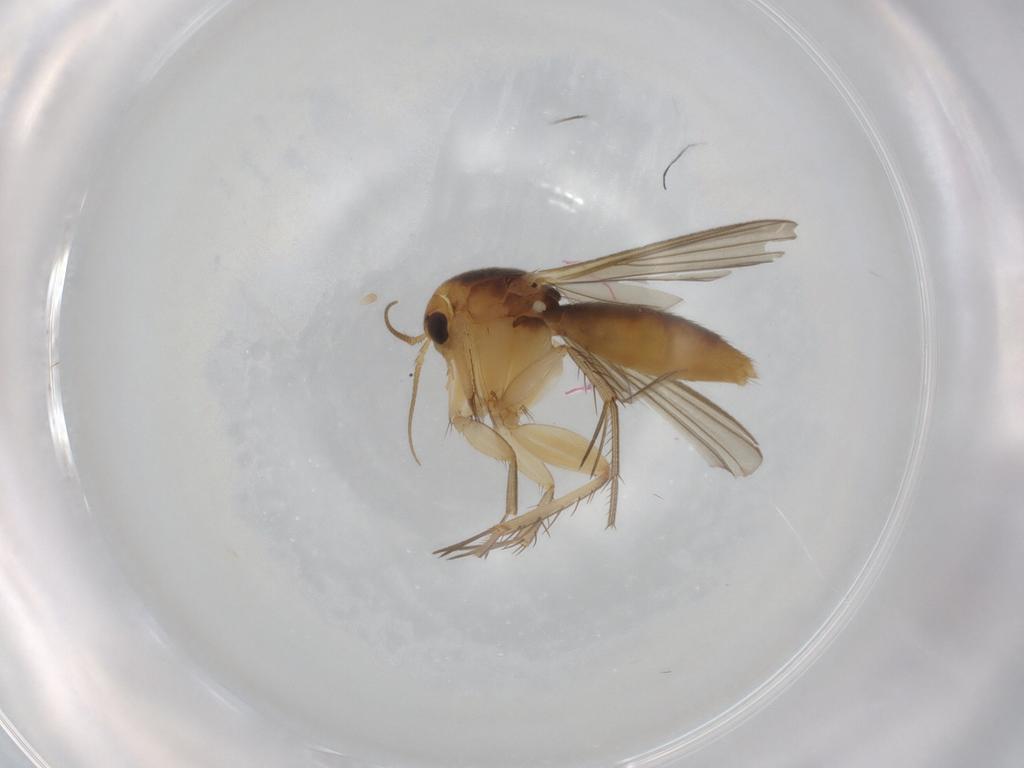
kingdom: Animalia
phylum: Arthropoda
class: Insecta
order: Diptera
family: Mycetophilidae
